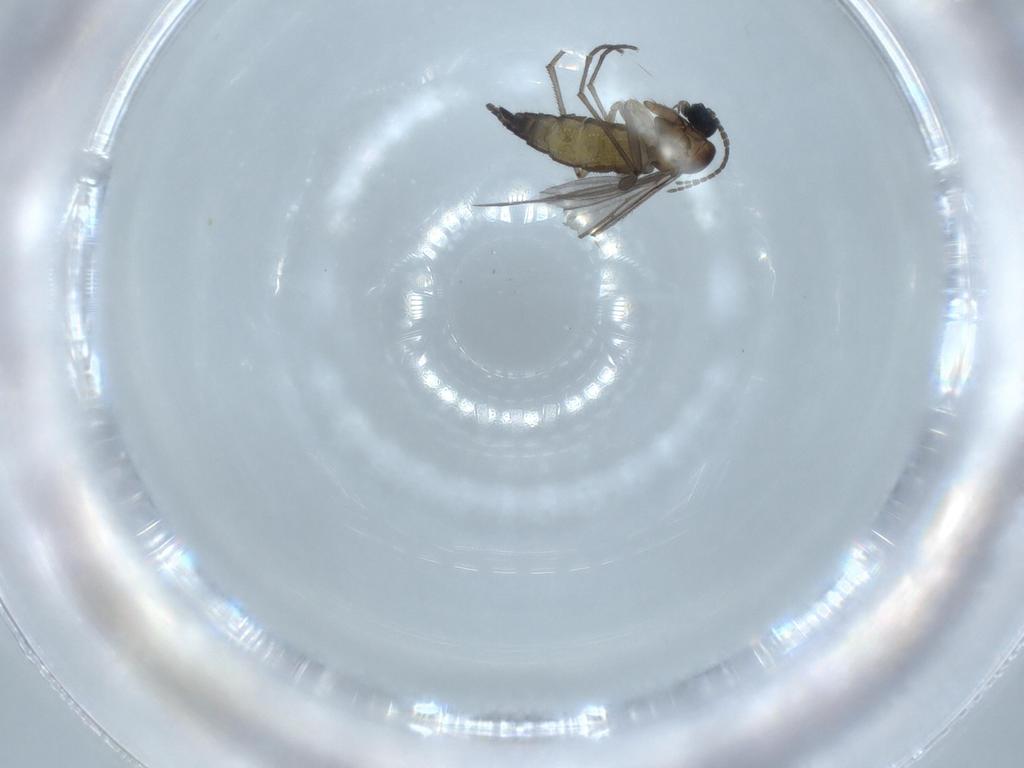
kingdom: Animalia
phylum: Arthropoda
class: Insecta
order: Diptera
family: Sciaridae
